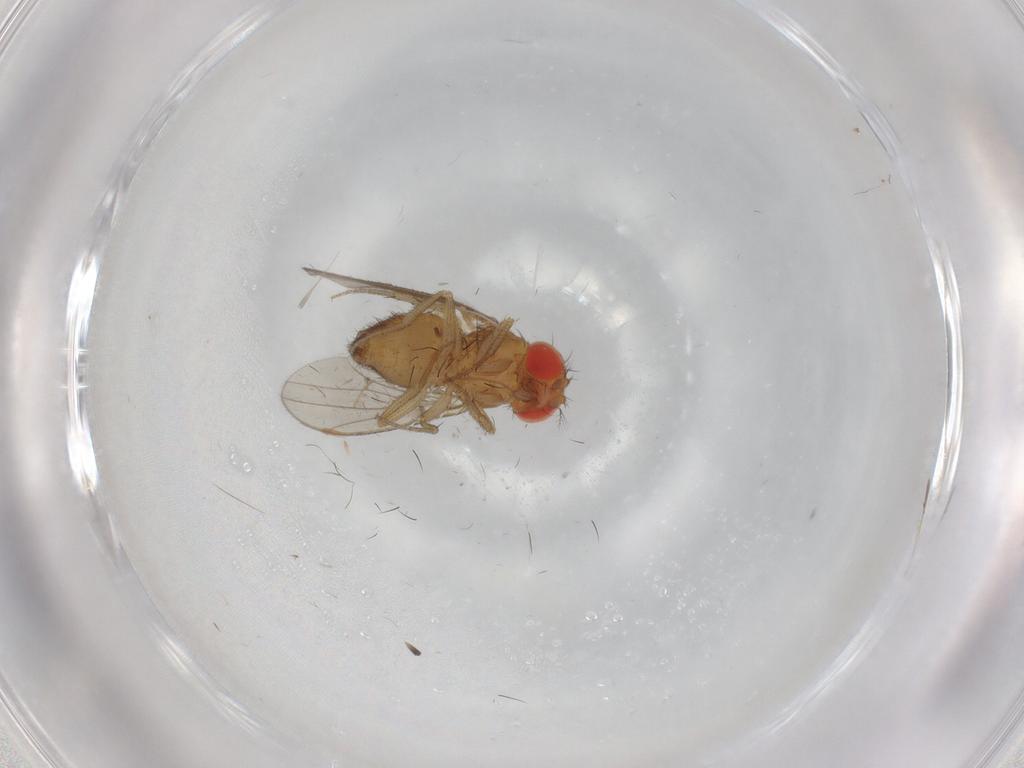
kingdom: Animalia
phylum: Arthropoda
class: Insecta
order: Diptera
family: Drosophilidae
